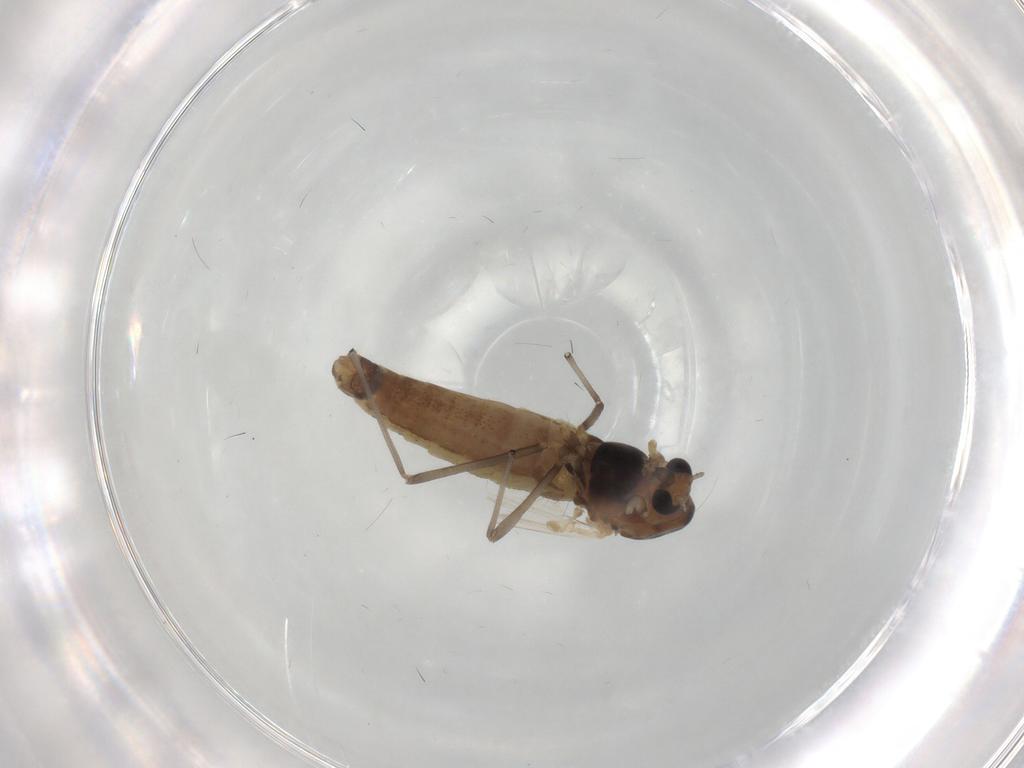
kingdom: Animalia
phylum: Arthropoda
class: Insecta
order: Diptera
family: Chironomidae
